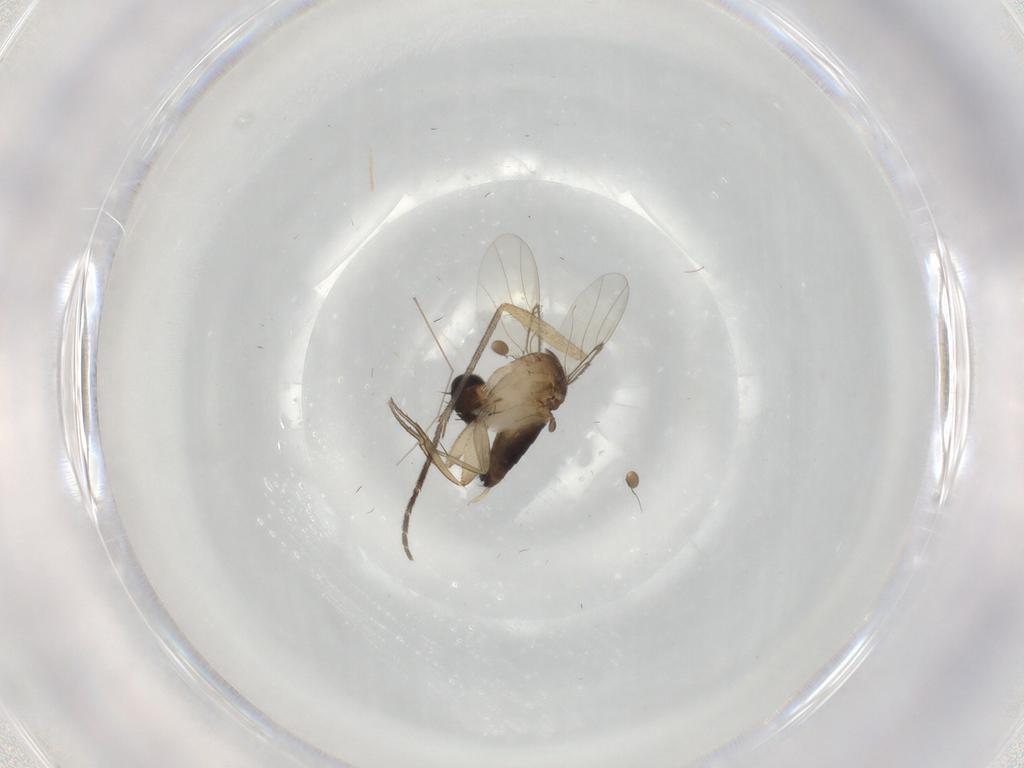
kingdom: Animalia
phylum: Arthropoda
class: Insecta
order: Diptera
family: Phoridae
